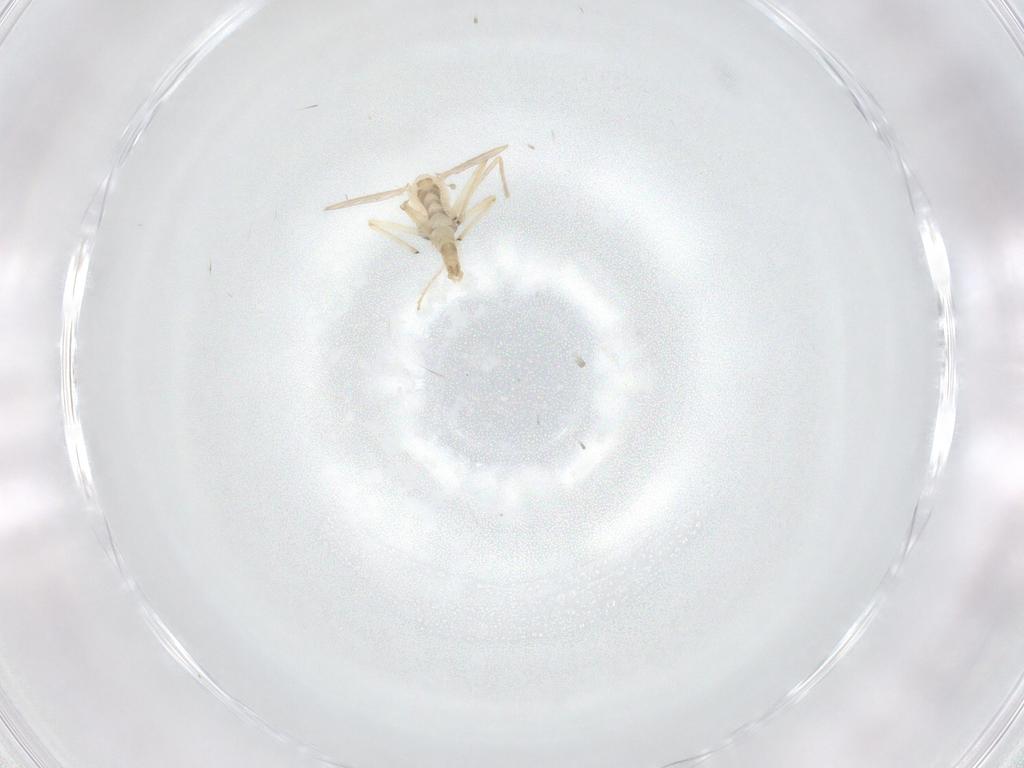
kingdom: Animalia
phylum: Arthropoda
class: Insecta
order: Diptera
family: Chironomidae
